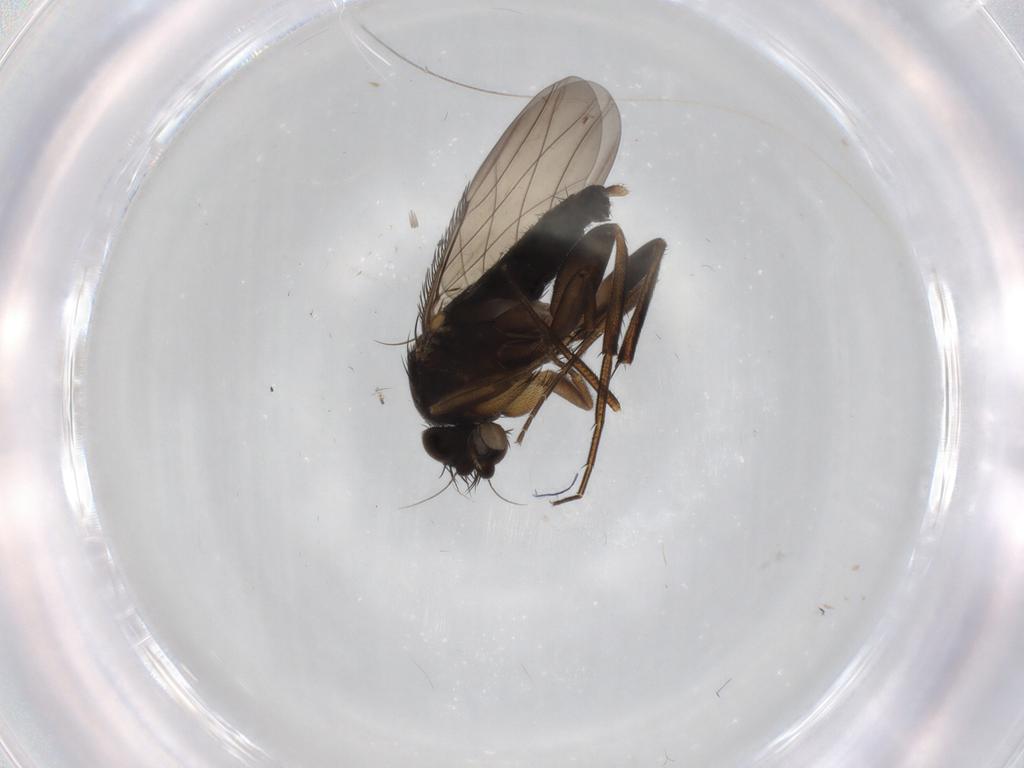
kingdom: Animalia
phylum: Arthropoda
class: Insecta
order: Diptera
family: Phoridae
